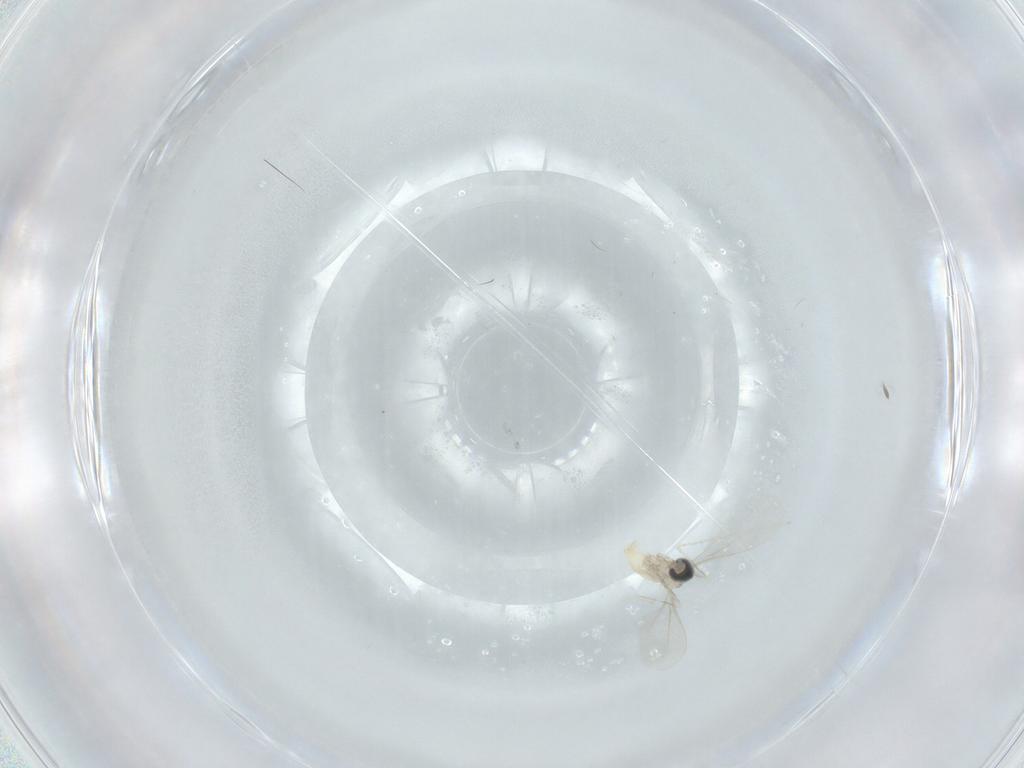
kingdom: Animalia
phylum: Arthropoda
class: Insecta
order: Diptera
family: Cecidomyiidae
